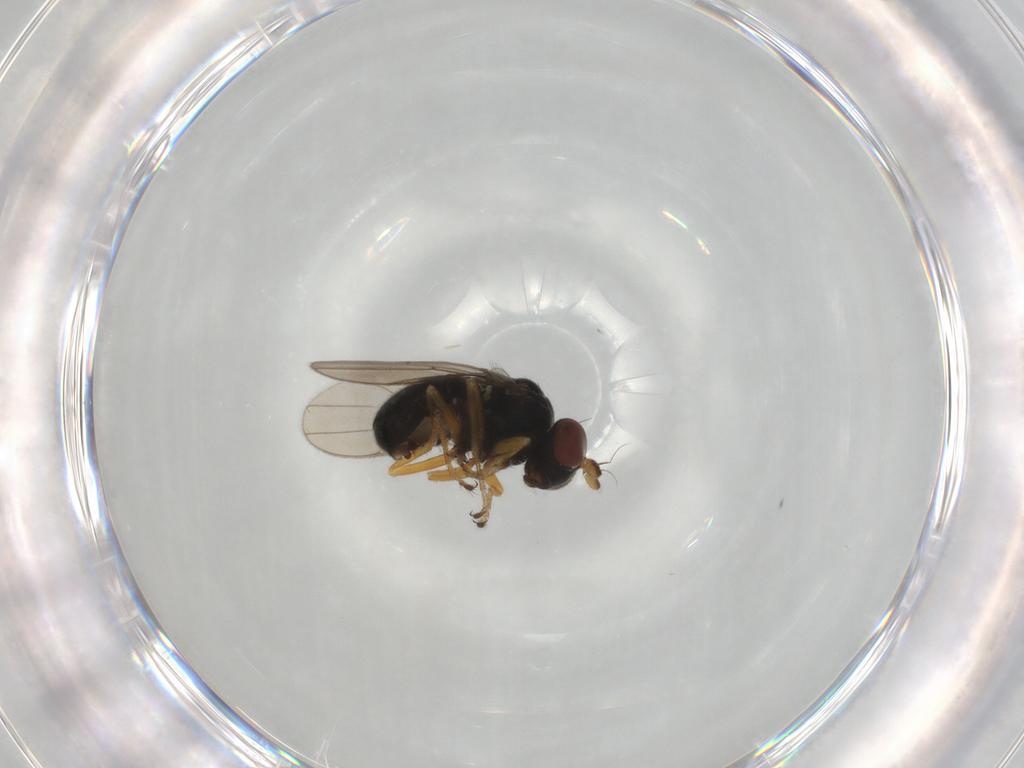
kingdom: Animalia
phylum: Arthropoda
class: Insecta
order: Diptera
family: Ephydridae
